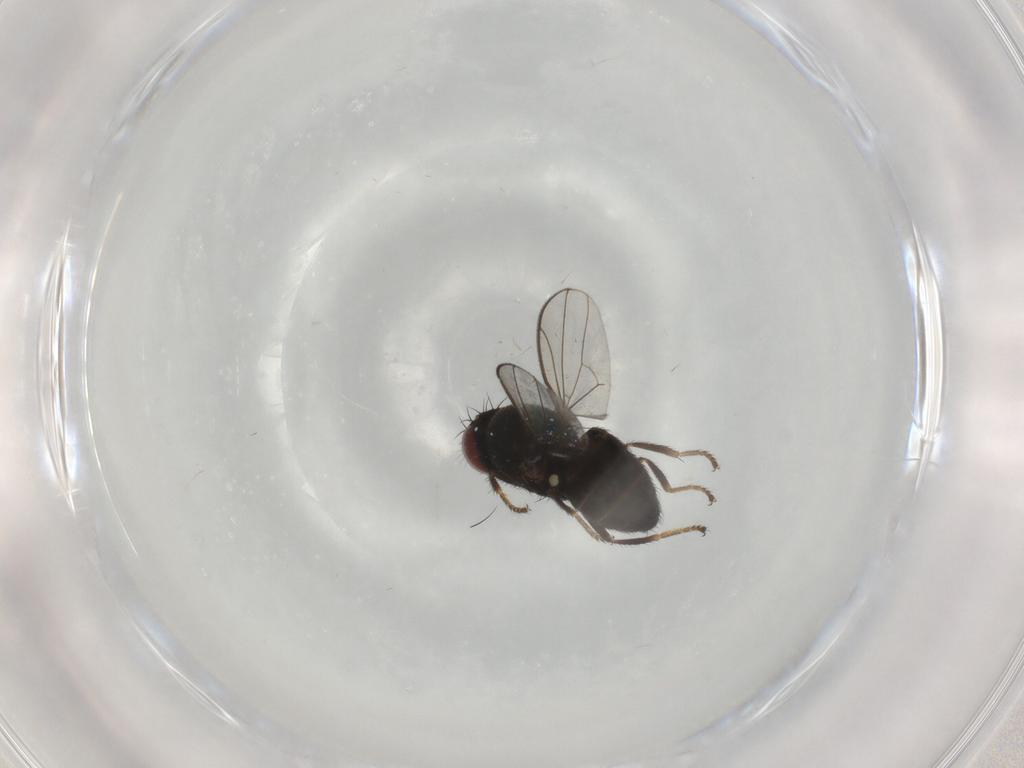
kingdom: Animalia
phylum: Arthropoda
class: Insecta
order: Diptera
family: Ephydridae
